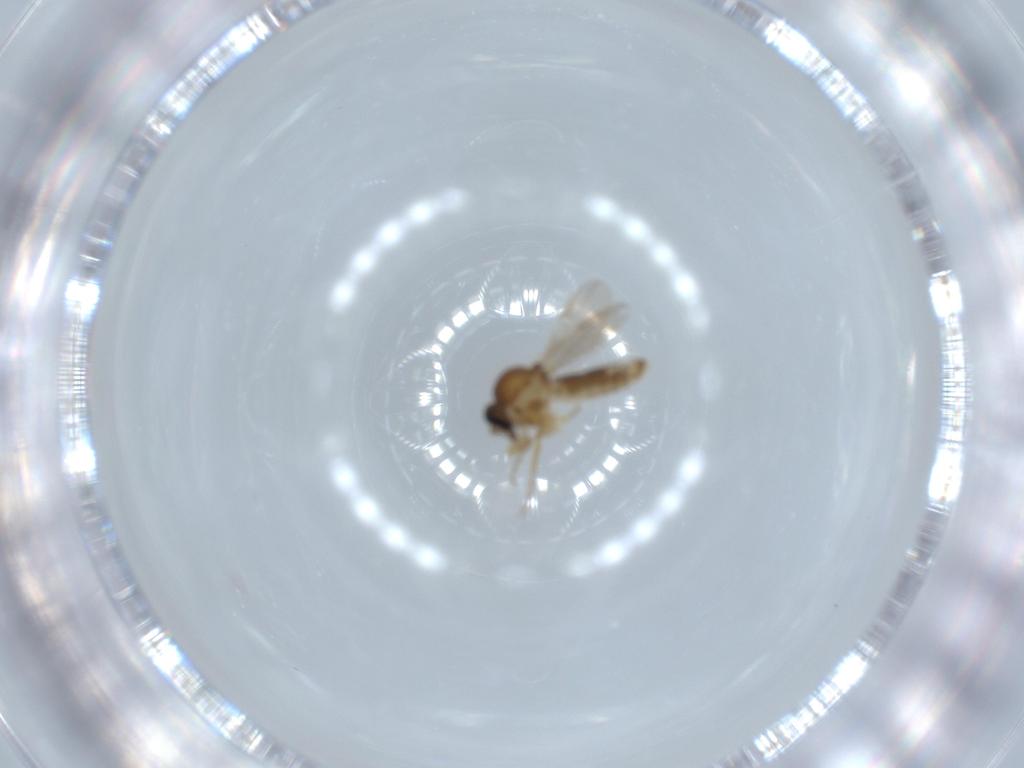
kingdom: Animalia
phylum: Arthropoda
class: Insecta
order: Diptera
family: Ceratopogonidae
